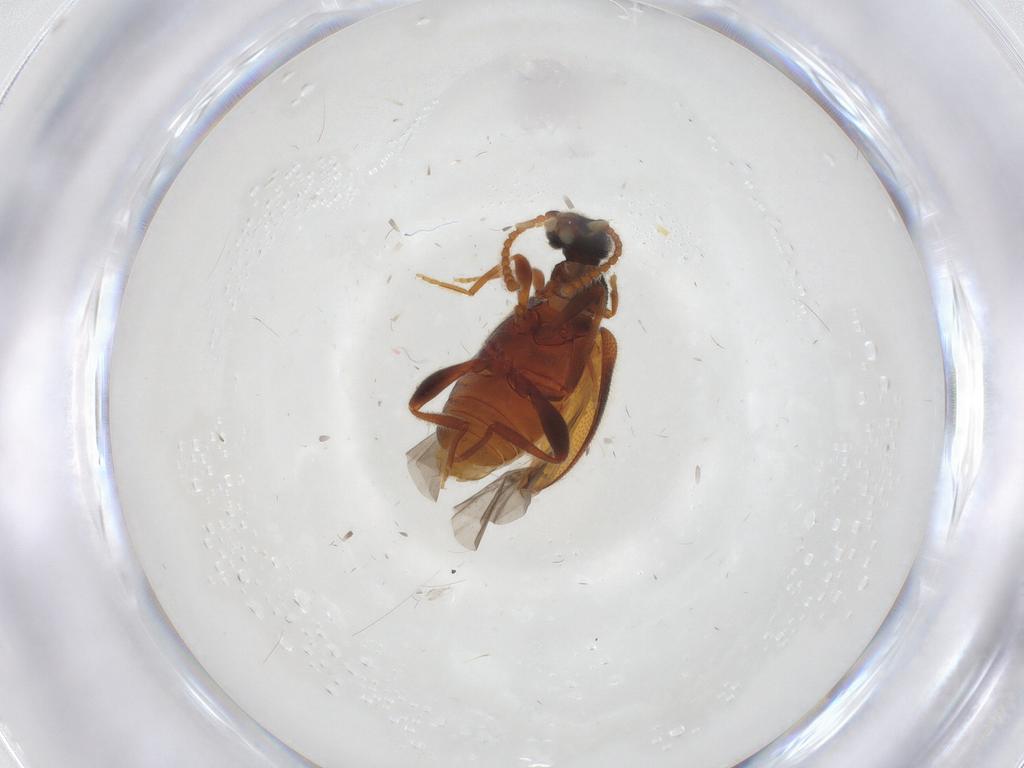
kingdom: Animalia
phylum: Arthropoda
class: Insecta
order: Coleoptera
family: Aderidae
